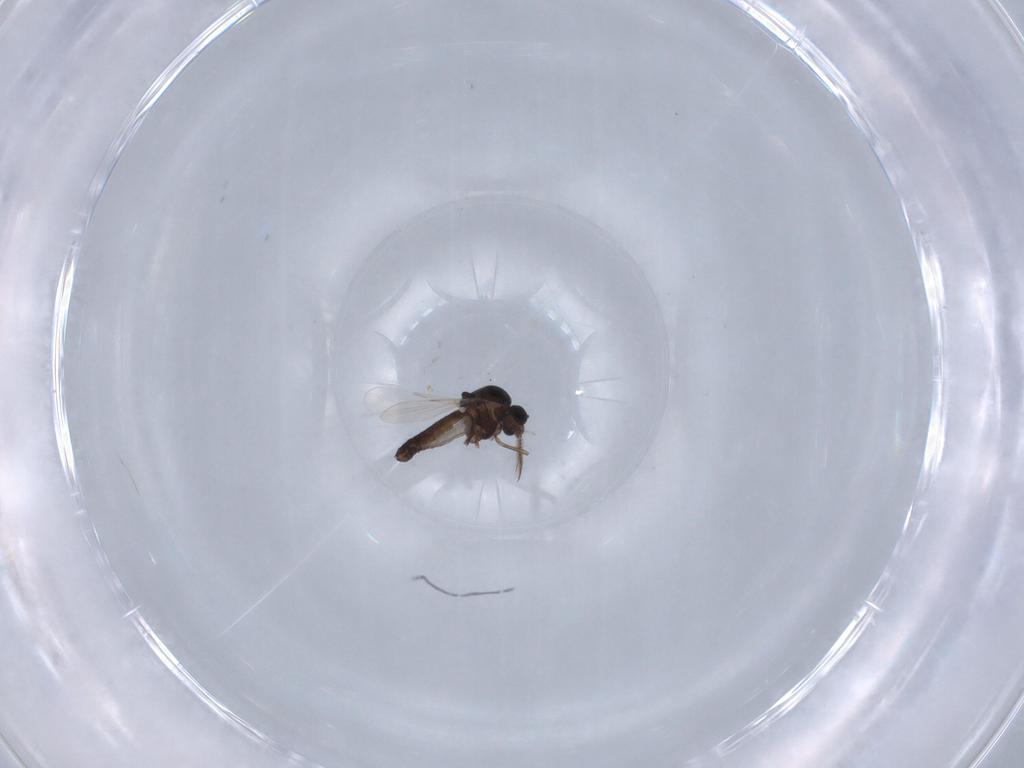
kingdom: Animalia
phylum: Arthropoda
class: Insecta
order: Diptera
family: Ceratopogonidae
